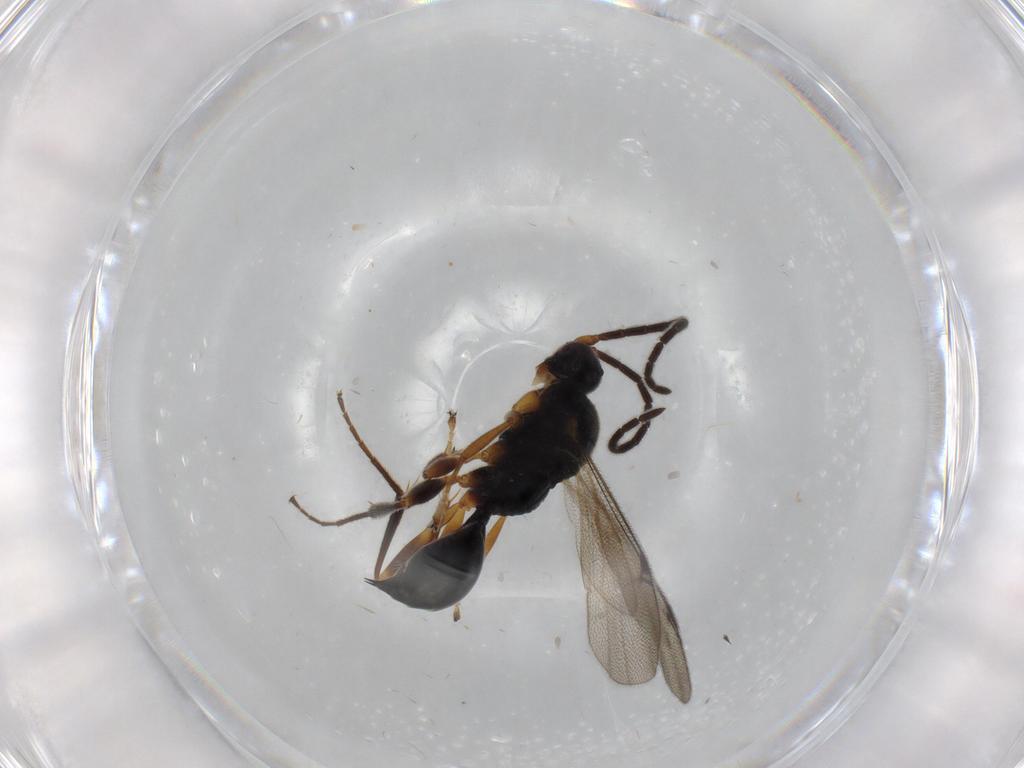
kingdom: Animalia
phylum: Arthropoda
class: Insecta
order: Hymenoptera
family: Proctotrupidae
